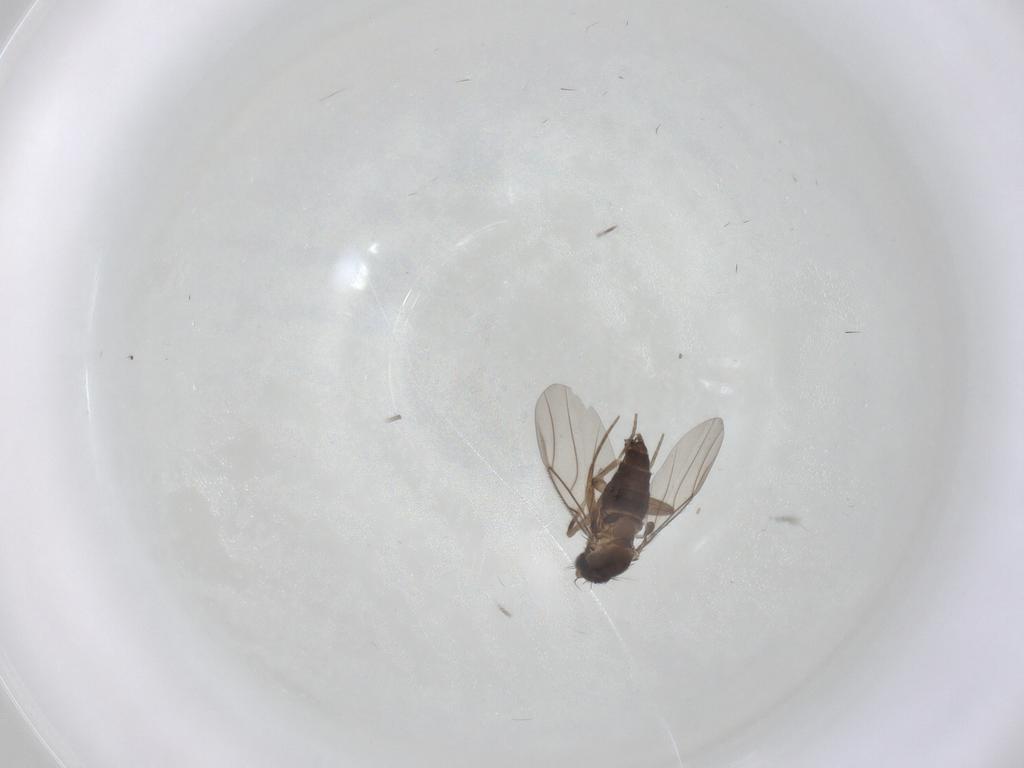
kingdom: Animalia
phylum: Arthropoda
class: Insecta
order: Diptera
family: Phoridae
